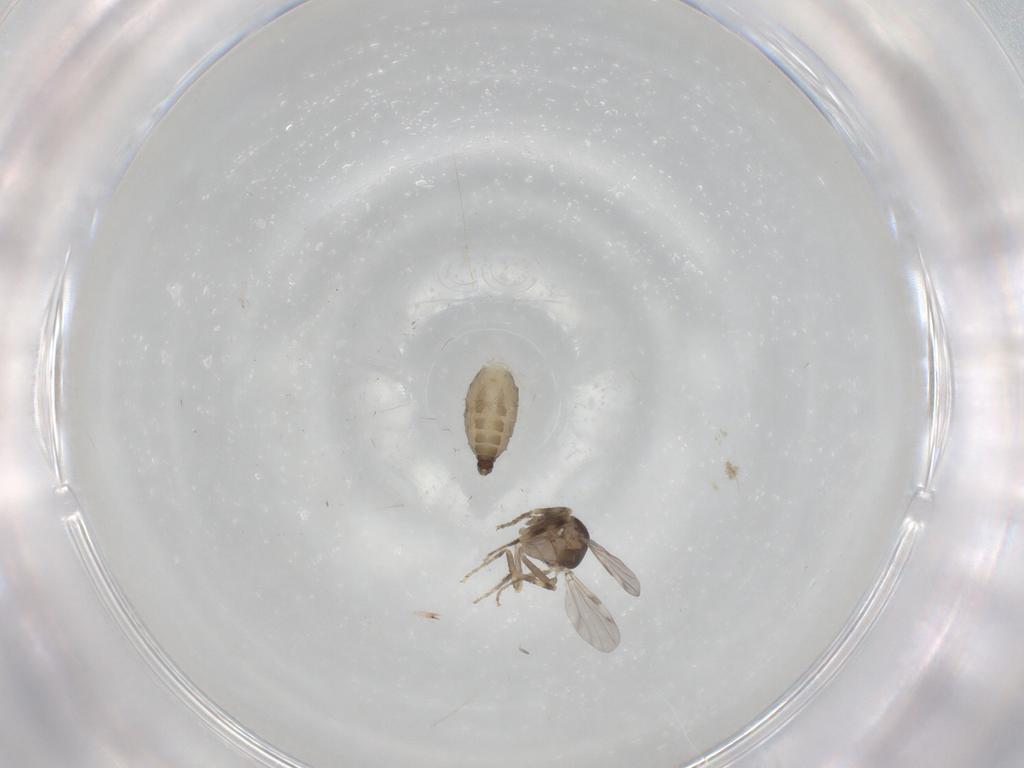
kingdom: Animalia
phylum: Arthropoda
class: Insecta
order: Diptera
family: Ceratopogonidae
